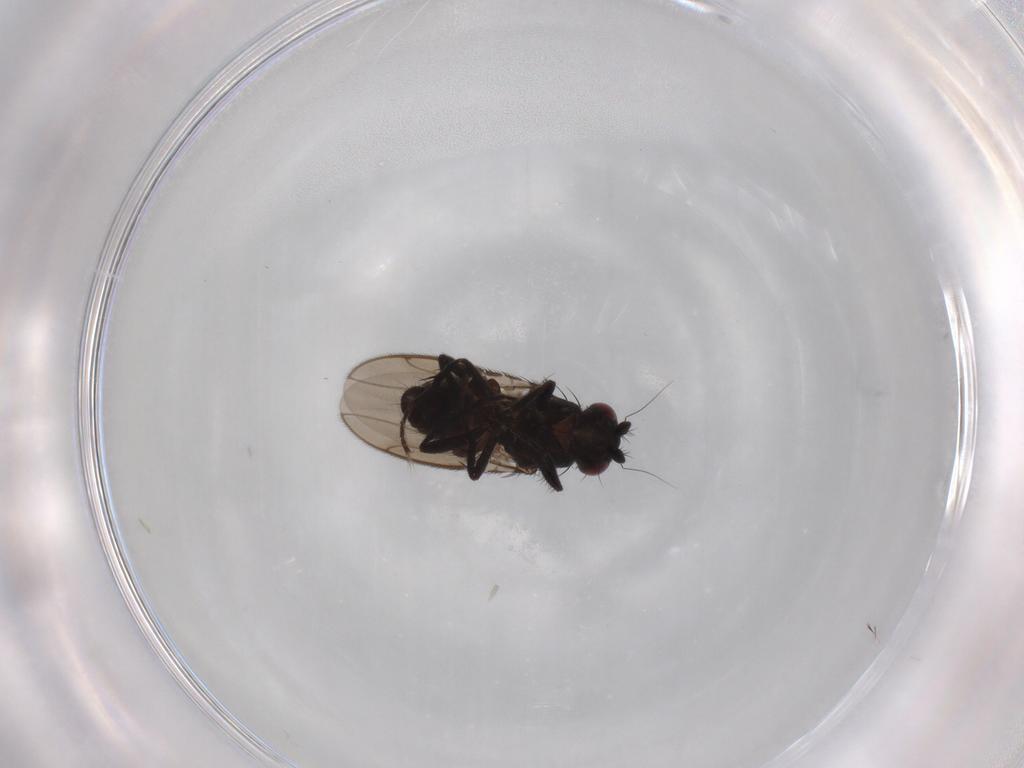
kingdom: Animalia
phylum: Arthropoda
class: Insecta
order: Diptera
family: Sphaeroceridae
